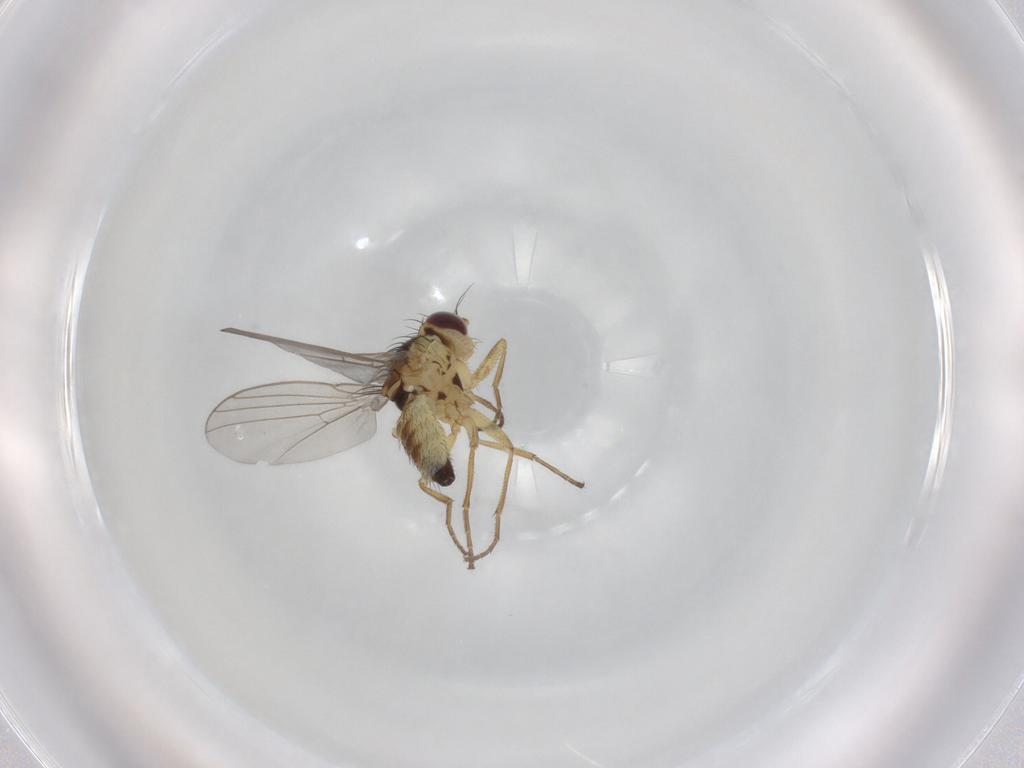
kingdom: Animalia
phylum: Arthropoda
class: Insecta
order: Diptera
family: Agromyzidae
